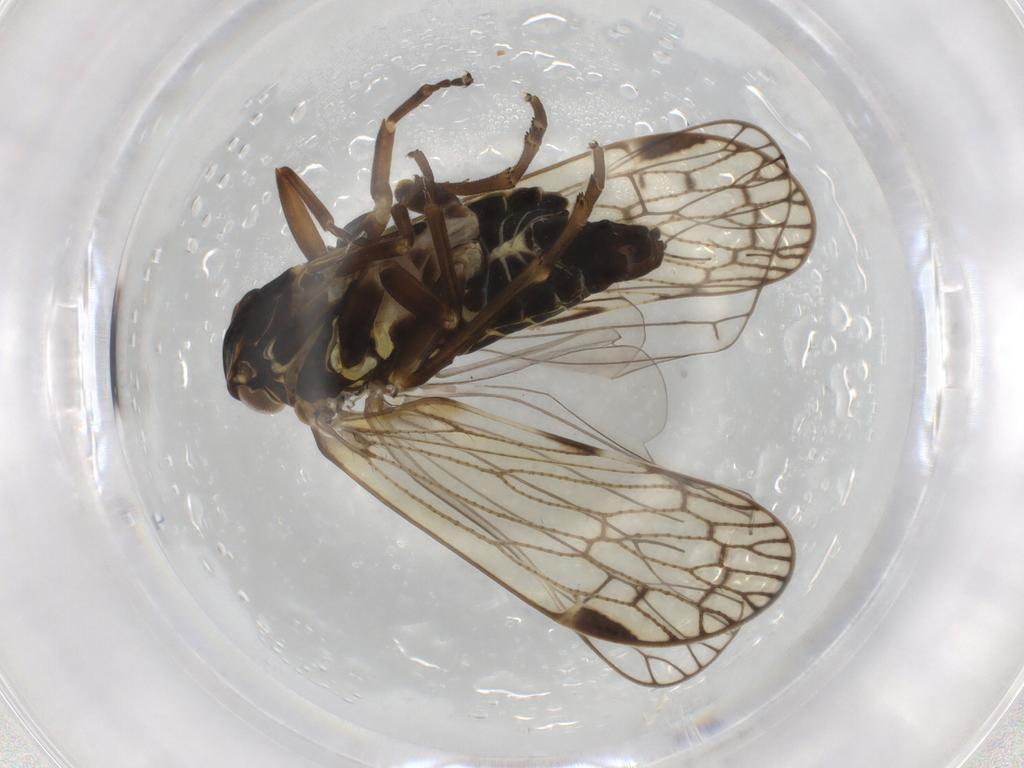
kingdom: Animalia
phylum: Arthropoda
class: Insecta
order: Hemiptera
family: Cixiidae
